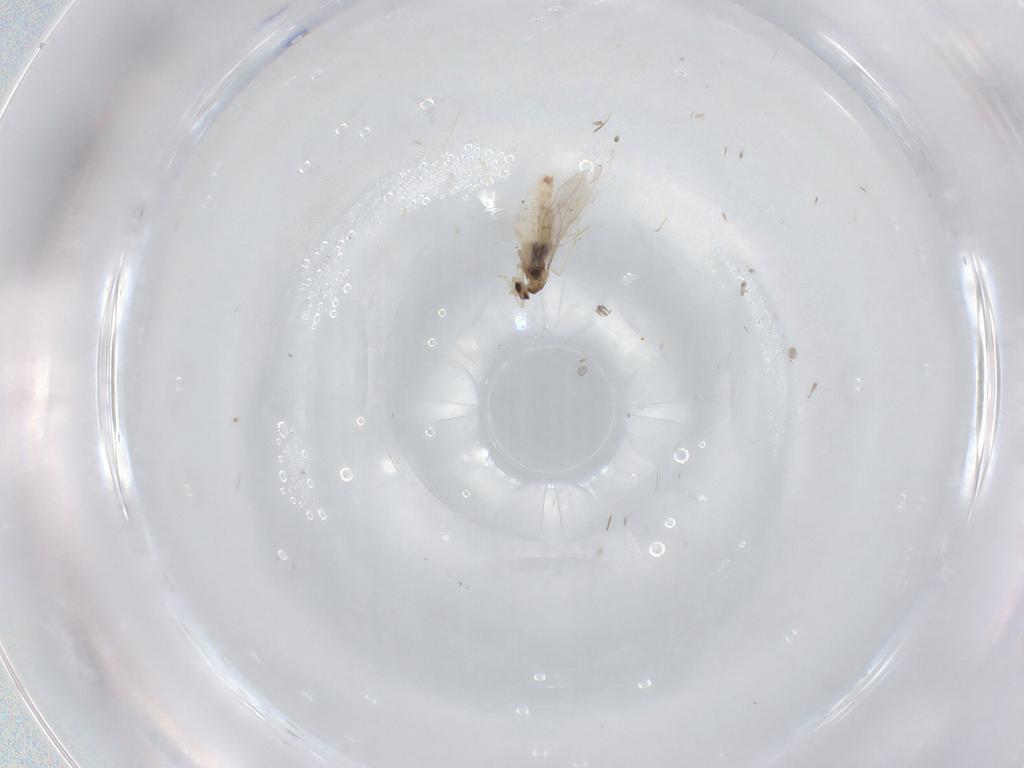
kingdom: Animalia
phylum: Arthropoda
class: Insecta
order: Diptera
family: Cecidomyiidae
